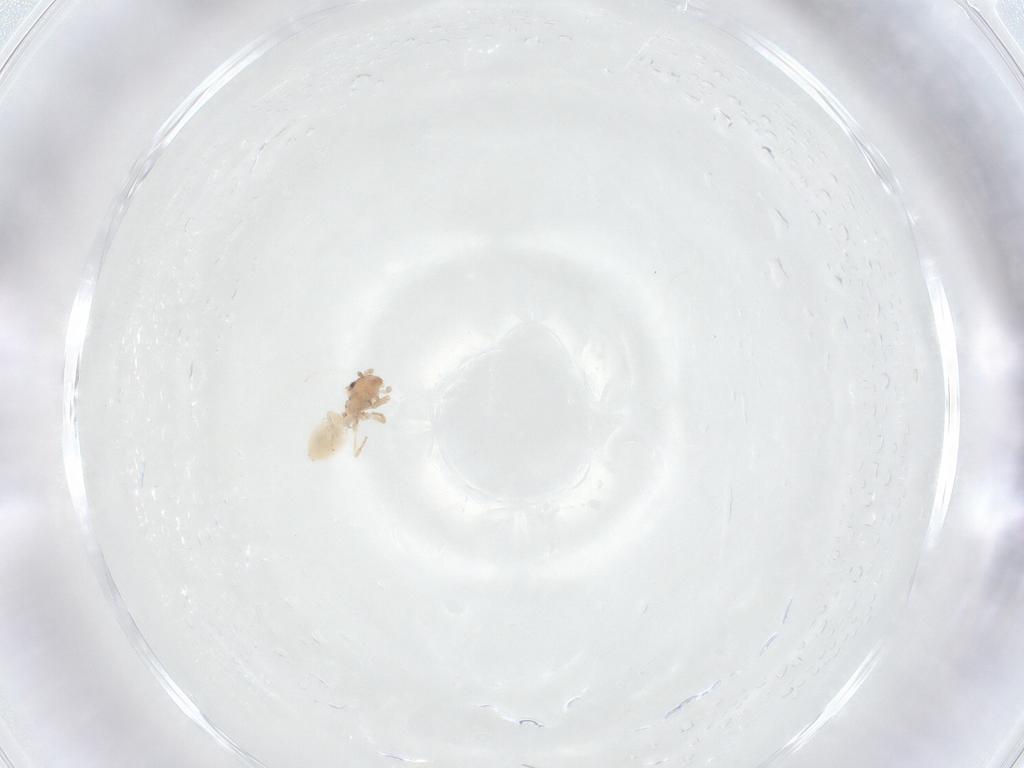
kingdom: Animalia
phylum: Arthropoda
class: Insecta
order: Psocodea
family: Lepidopsocidae
